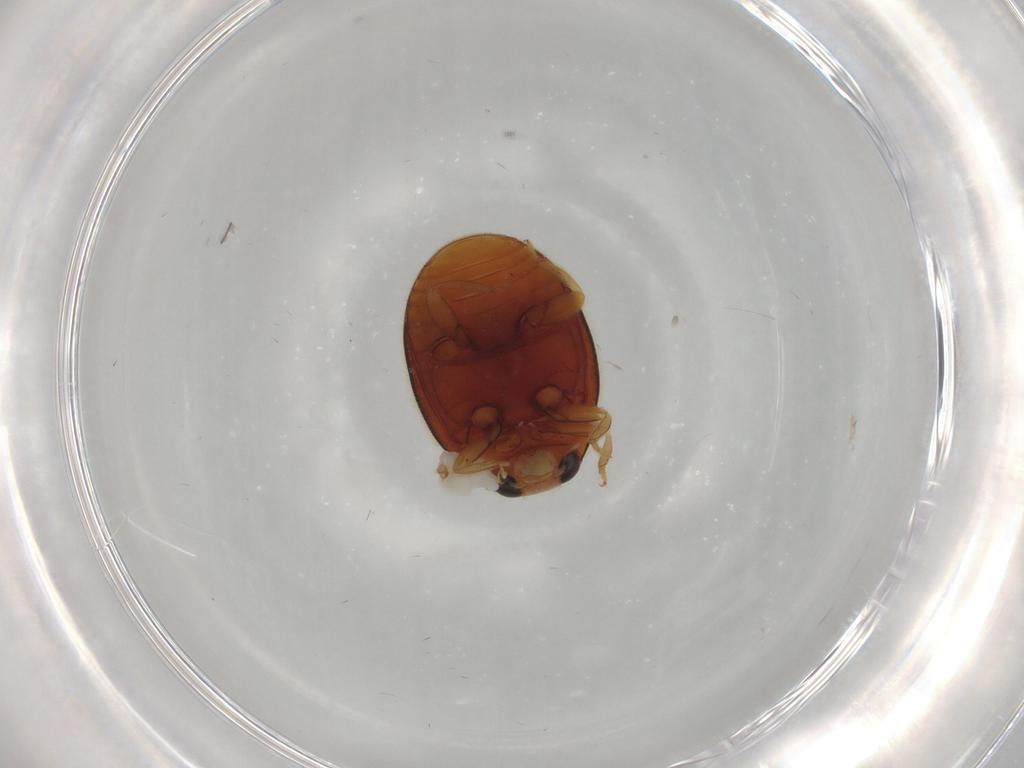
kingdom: Animalia
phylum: Arthropoda
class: Insecta
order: Coleoptera
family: Coccinellidae
